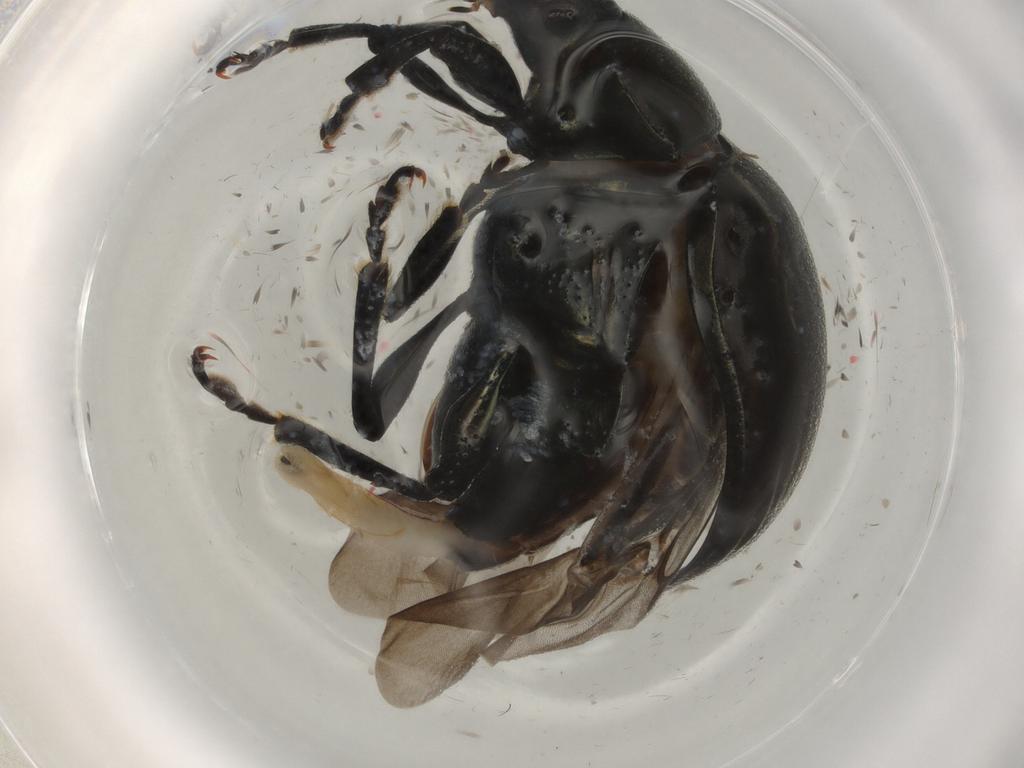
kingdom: Animalia
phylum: Arthropoda
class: Insecta
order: Coleoptera
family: Chrysomelidae
